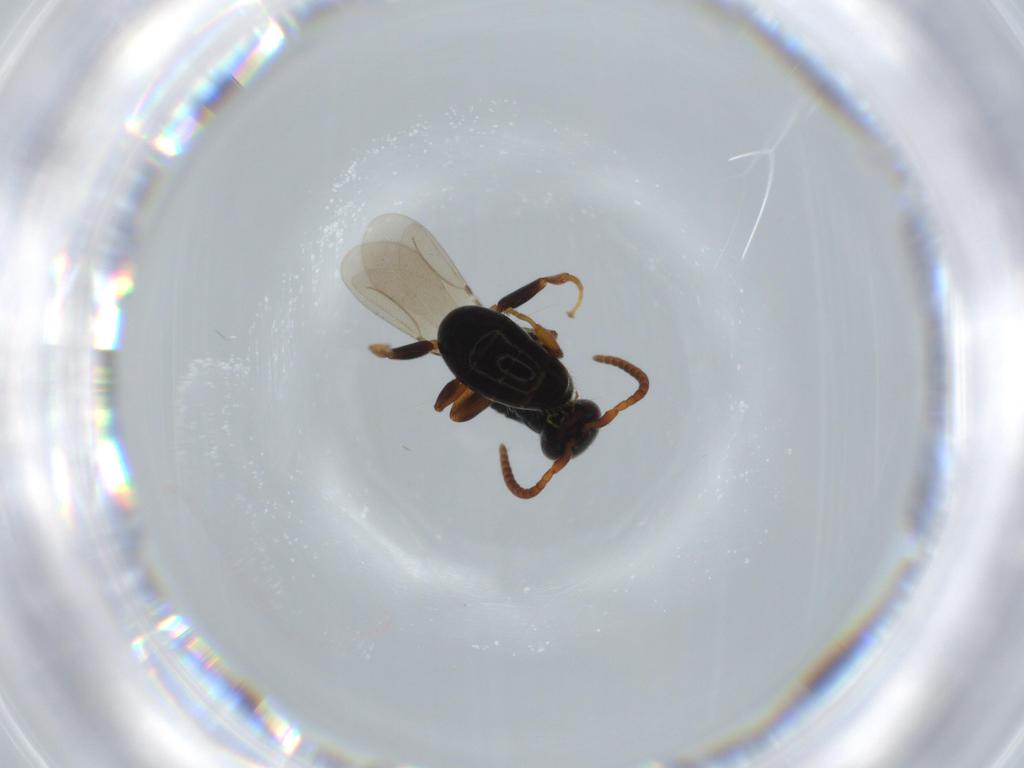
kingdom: Animalia
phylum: Arthropoda
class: Insecta
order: Hymenoptera
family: Bethylidae
